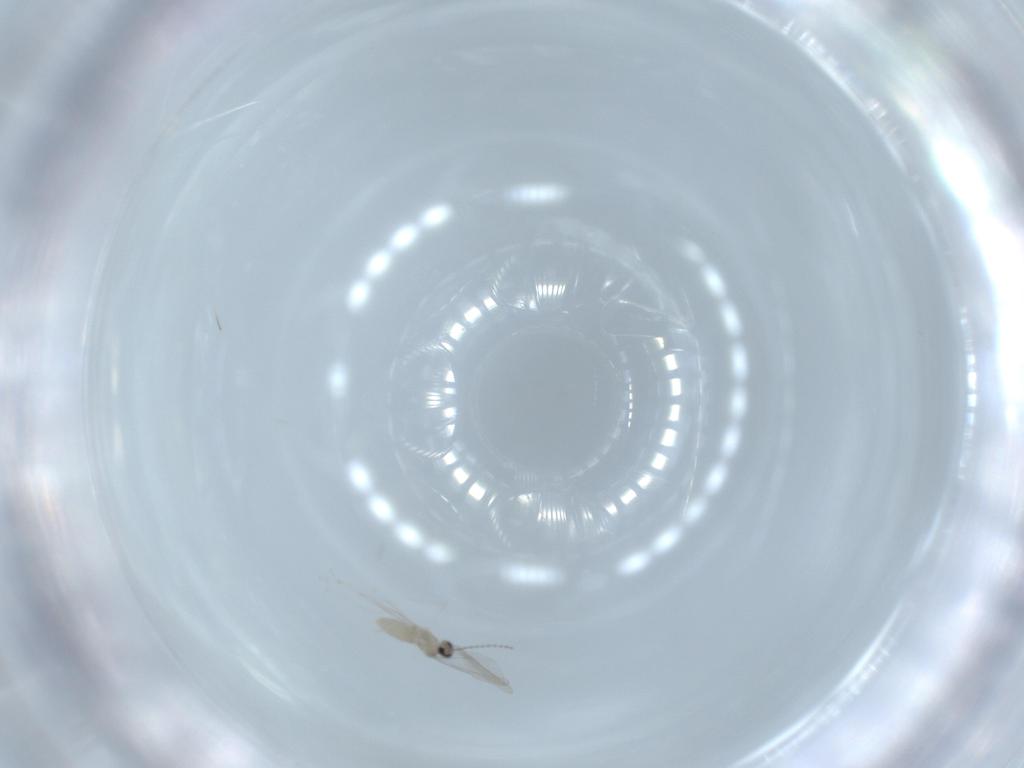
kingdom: Animalia
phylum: Arthropoda
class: Insecta
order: Diptera
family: Cecidomyiidae
